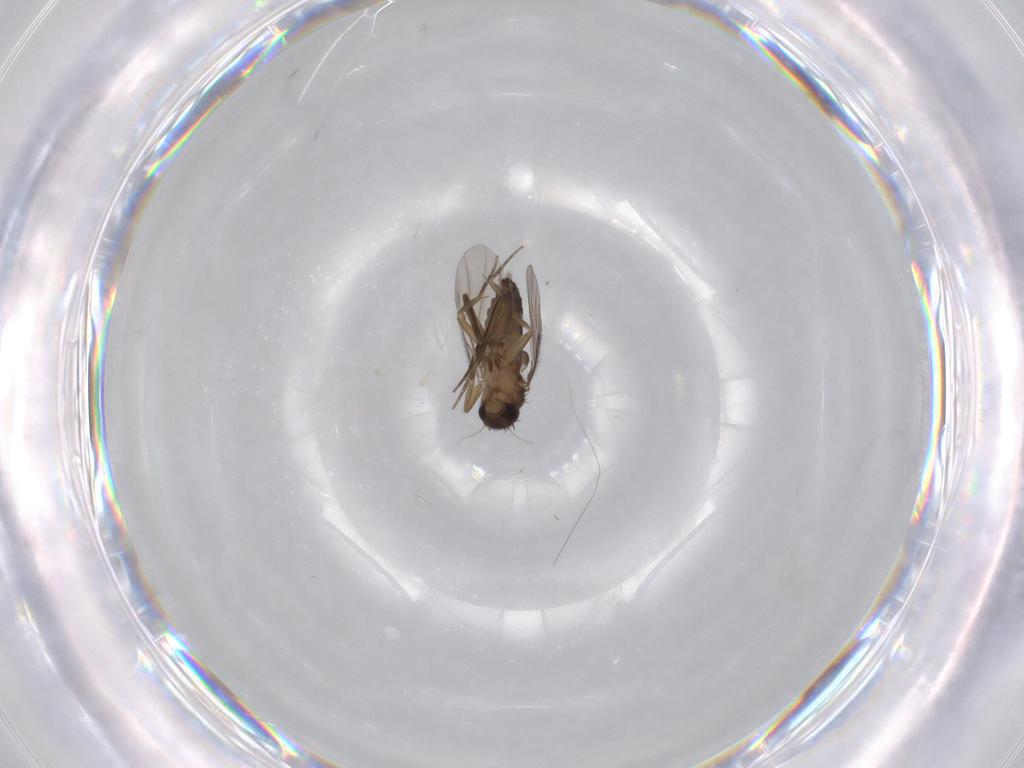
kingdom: Animalia
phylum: Arthropoda
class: Insecta
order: Diptera
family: Phoridae
